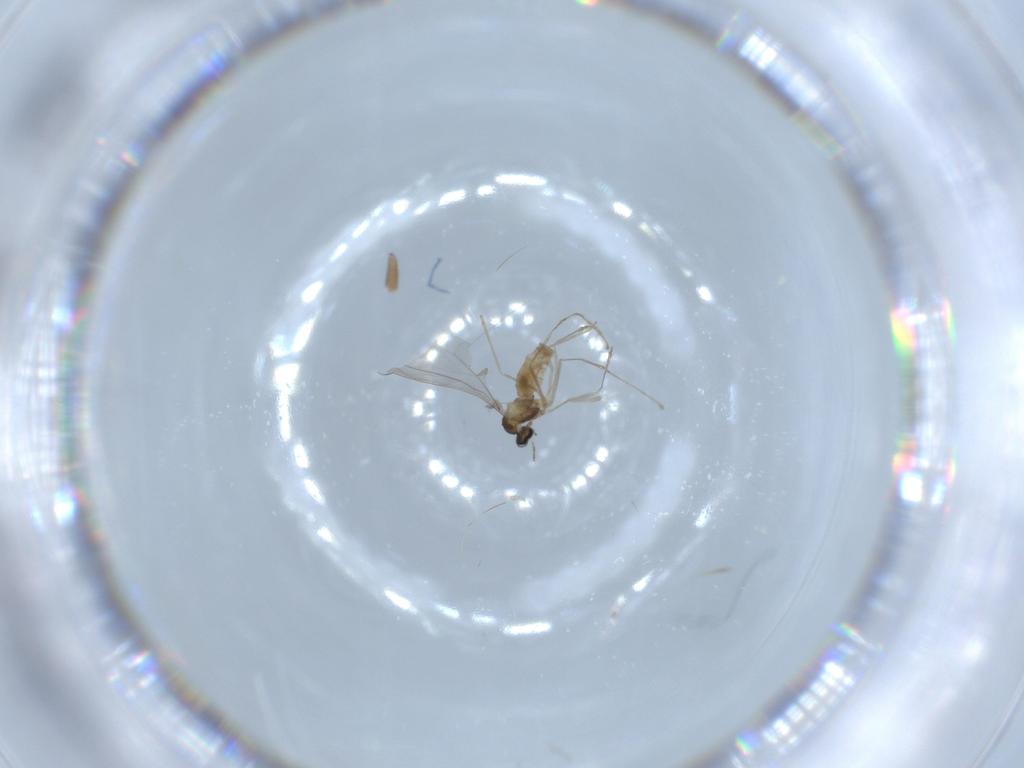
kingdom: Animalia
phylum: Arthropoda
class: Insecta
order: Diptera
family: Cecidomyiidae
